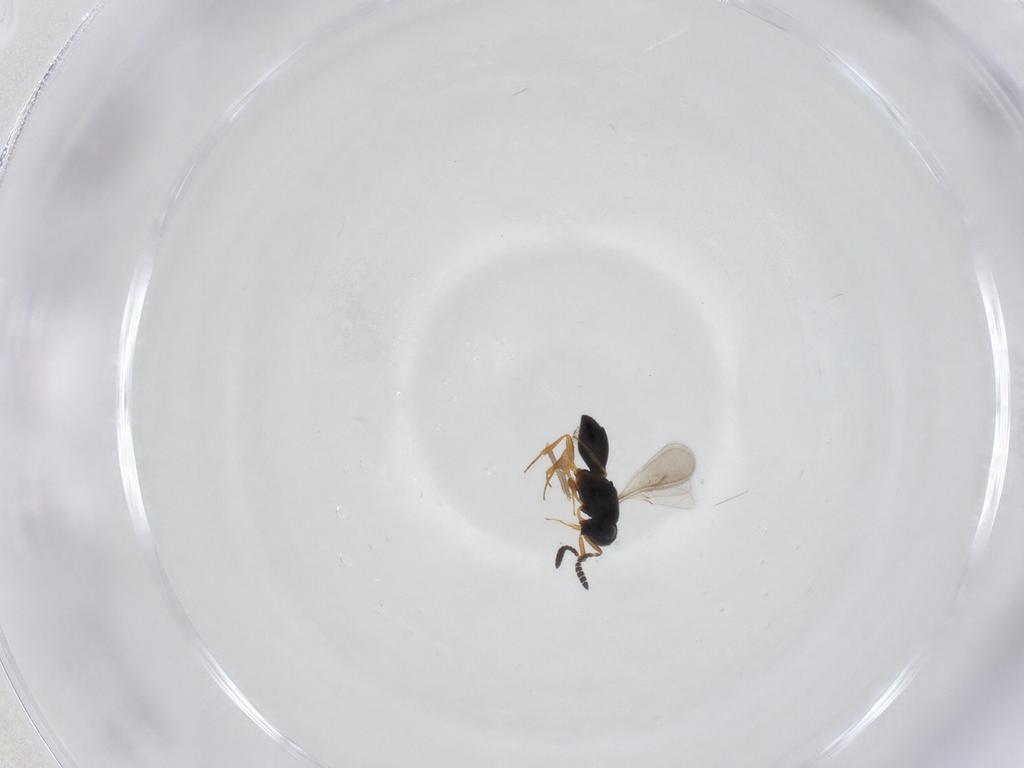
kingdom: Animalia
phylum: Arthropoda
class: Insecta
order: Hymenoptera
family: Scelionidae
